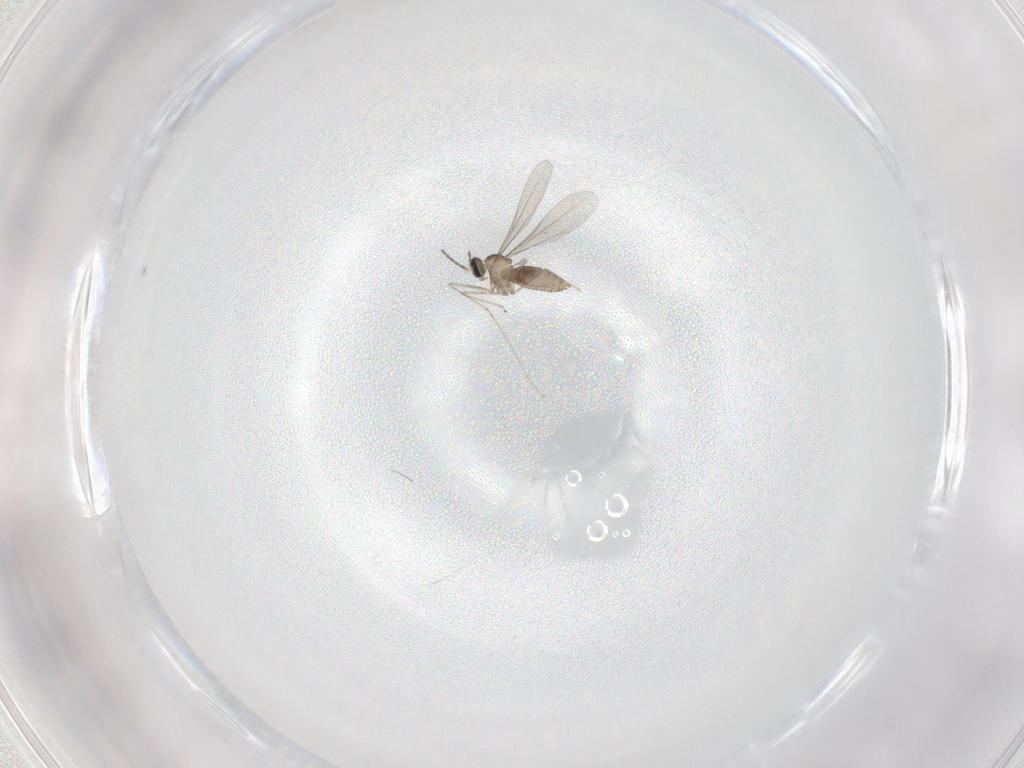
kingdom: Animalia
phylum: Arthropoda
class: Insecta
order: Diptera
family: Cecidomyiidae
